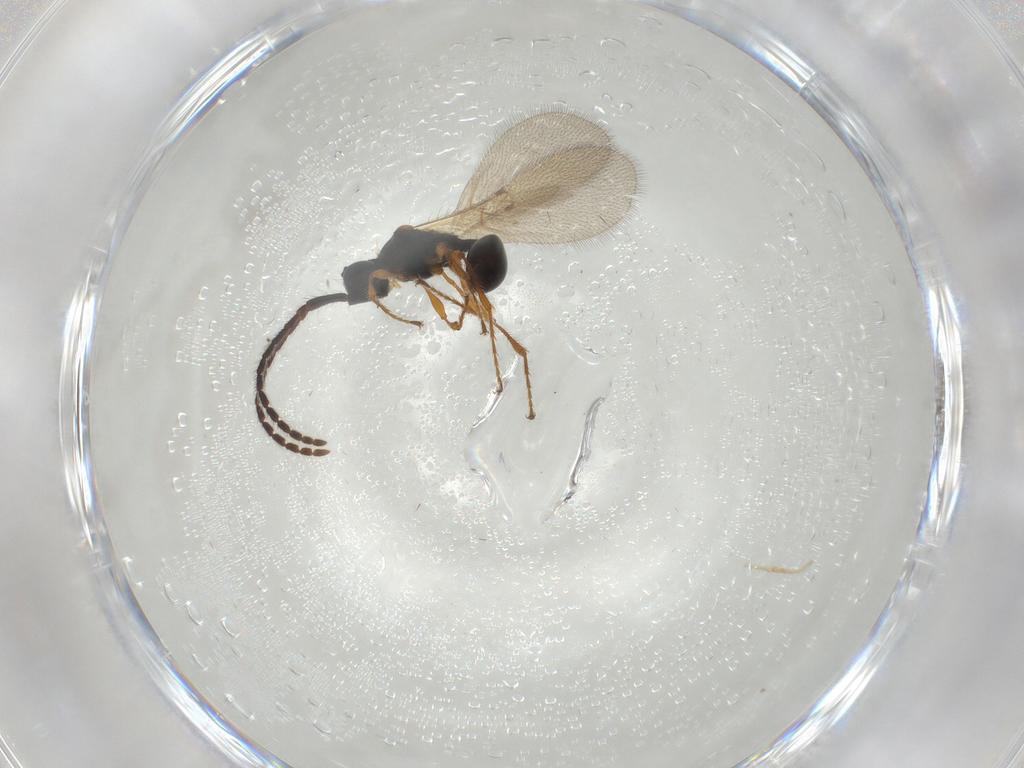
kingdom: Animalia
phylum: Arthropoda
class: Insecta
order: Hymenoptera
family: Diapriidae
